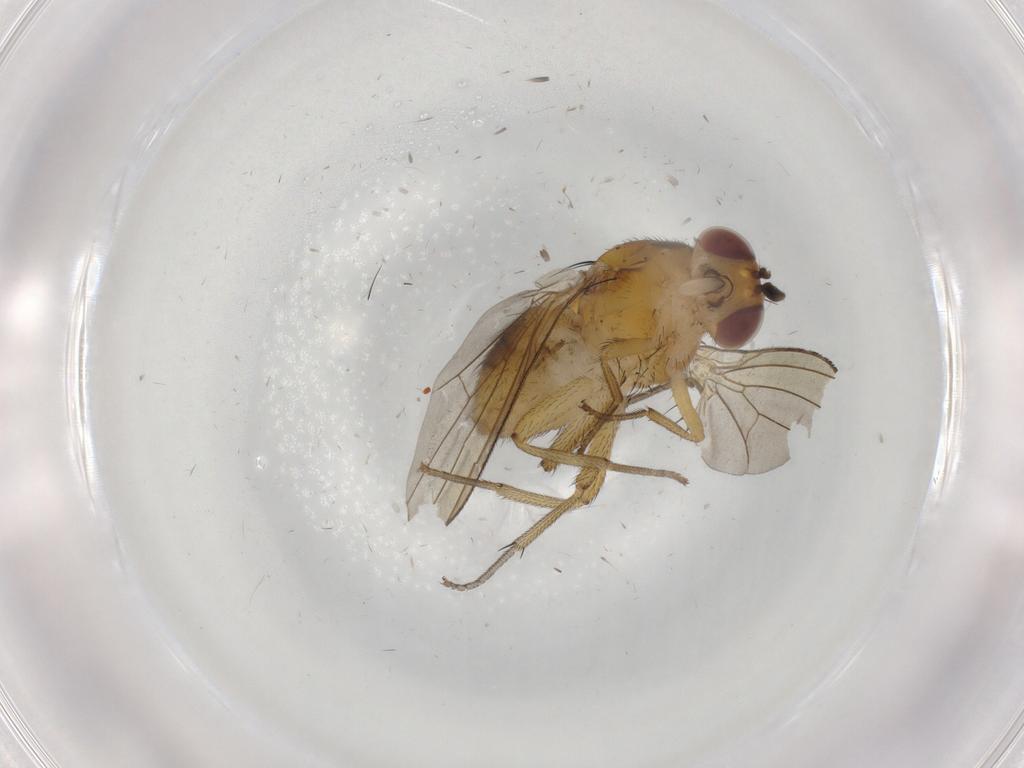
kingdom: Animalia
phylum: Arthropoda
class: Insecta
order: Diptera
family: Lauxaniidae
